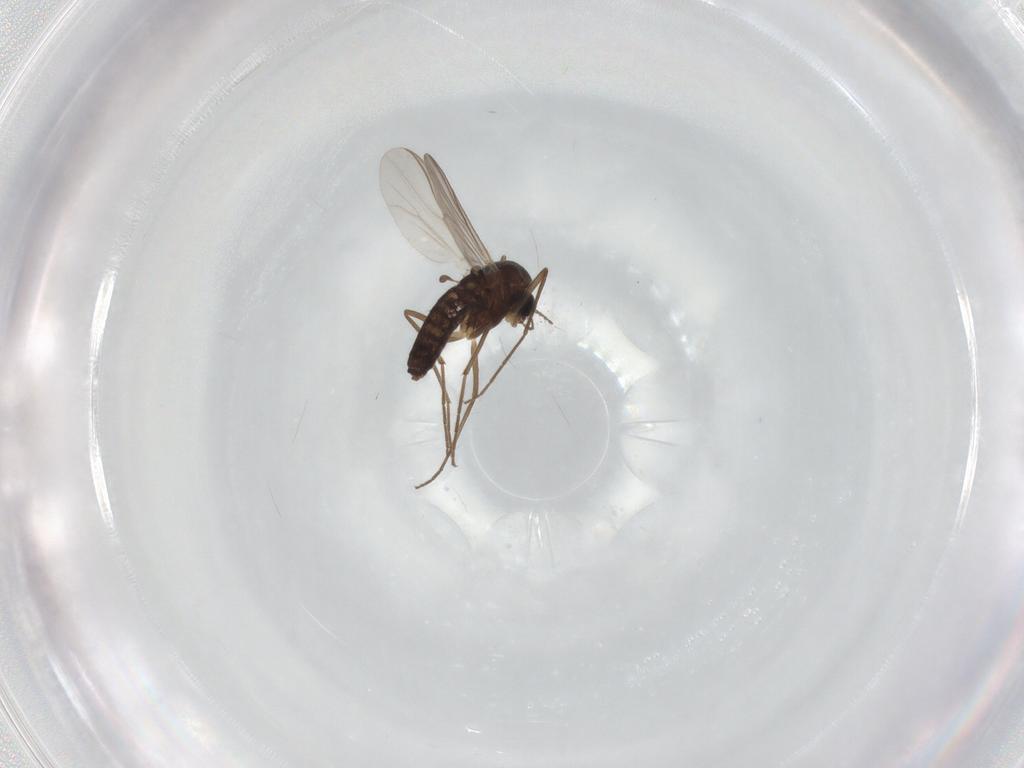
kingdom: Animalia
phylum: Arthropoda
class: Insecta
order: Diptera
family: Chironomidae
